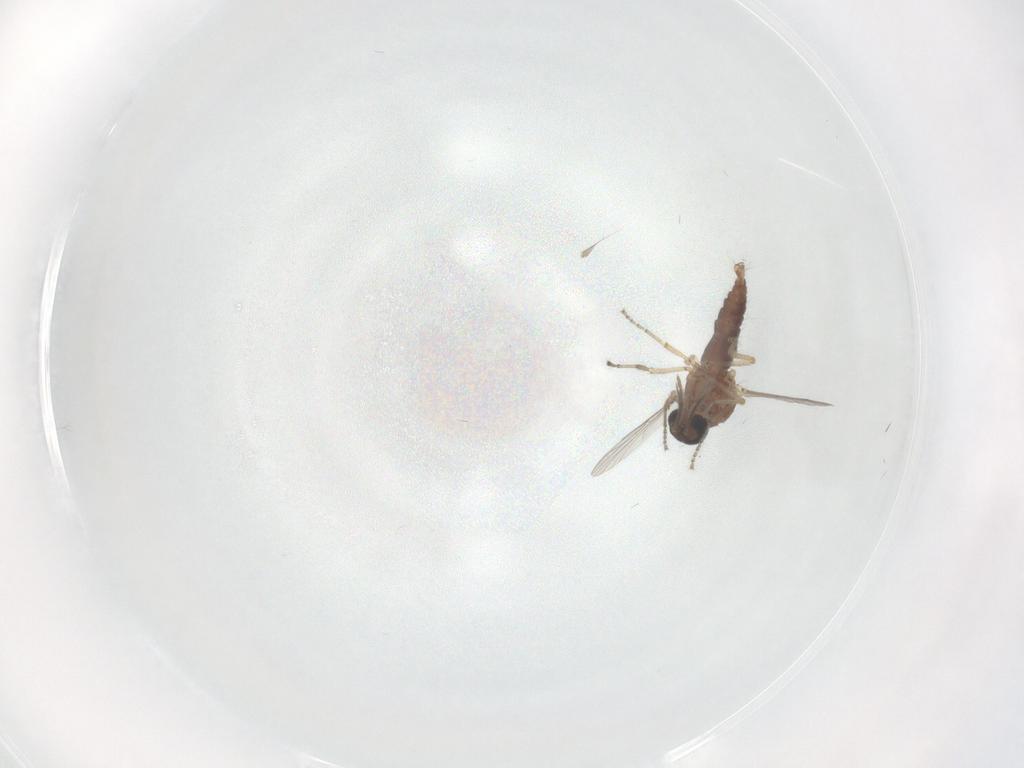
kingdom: Animalia
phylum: Arthropoda
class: Insecta
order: Diptera
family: Ceratopogonidae
